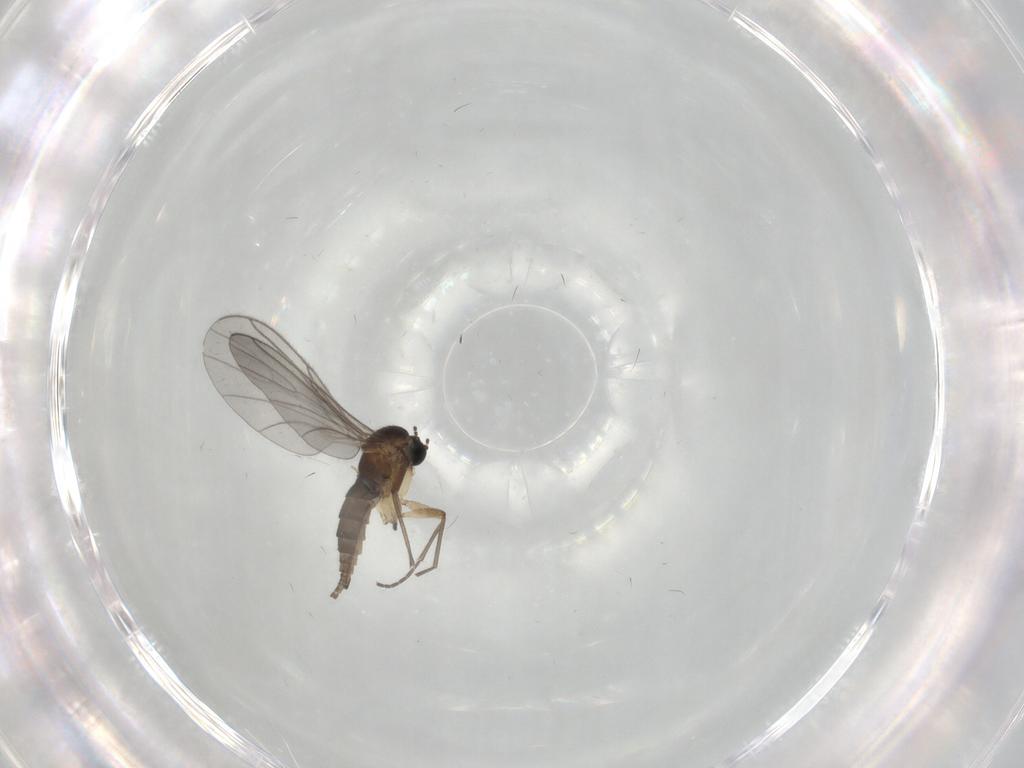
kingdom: Animalia
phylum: Arthropoda
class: Insecta
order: Diptera
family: Sciaridae
